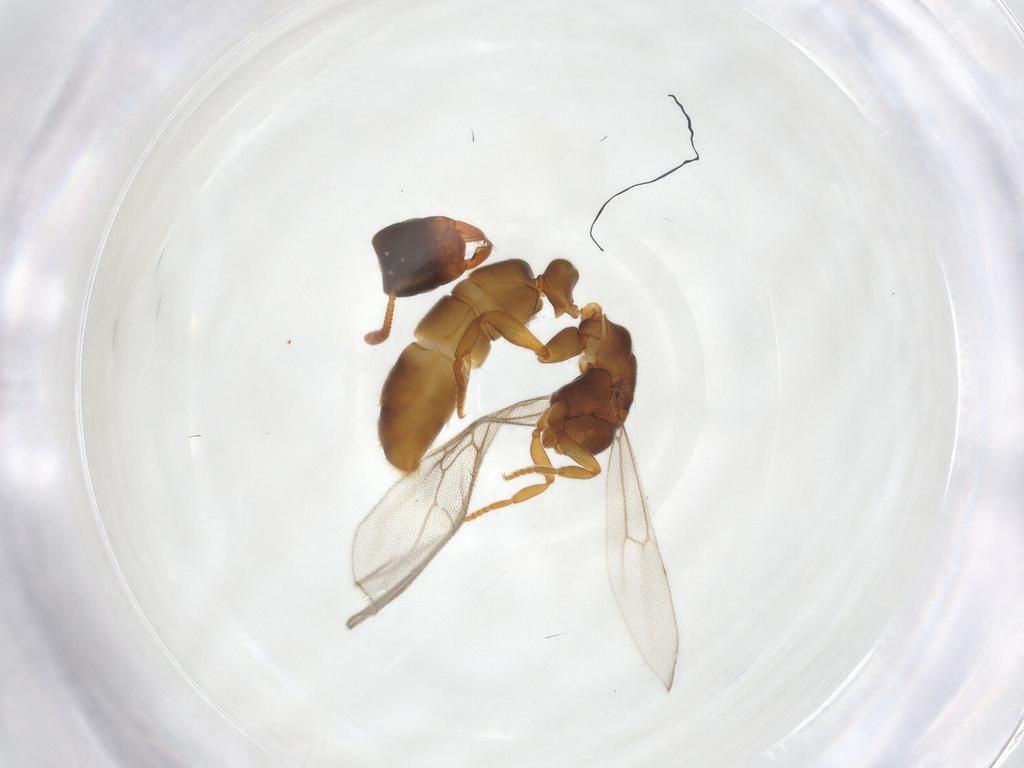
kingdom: Animalia
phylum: Arthropoda
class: Insecta
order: Hymenoptera
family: Formicidae
